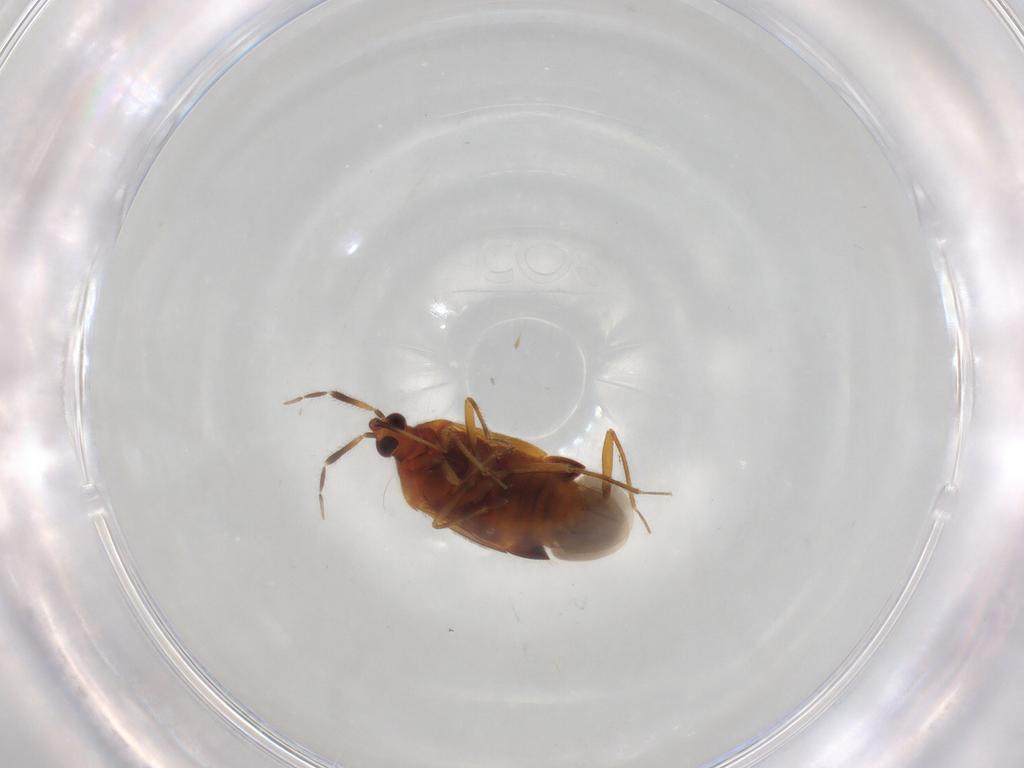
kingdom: Animalia
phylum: Arthropoda
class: Insecta
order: Hemiptera
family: Anthocoridae
